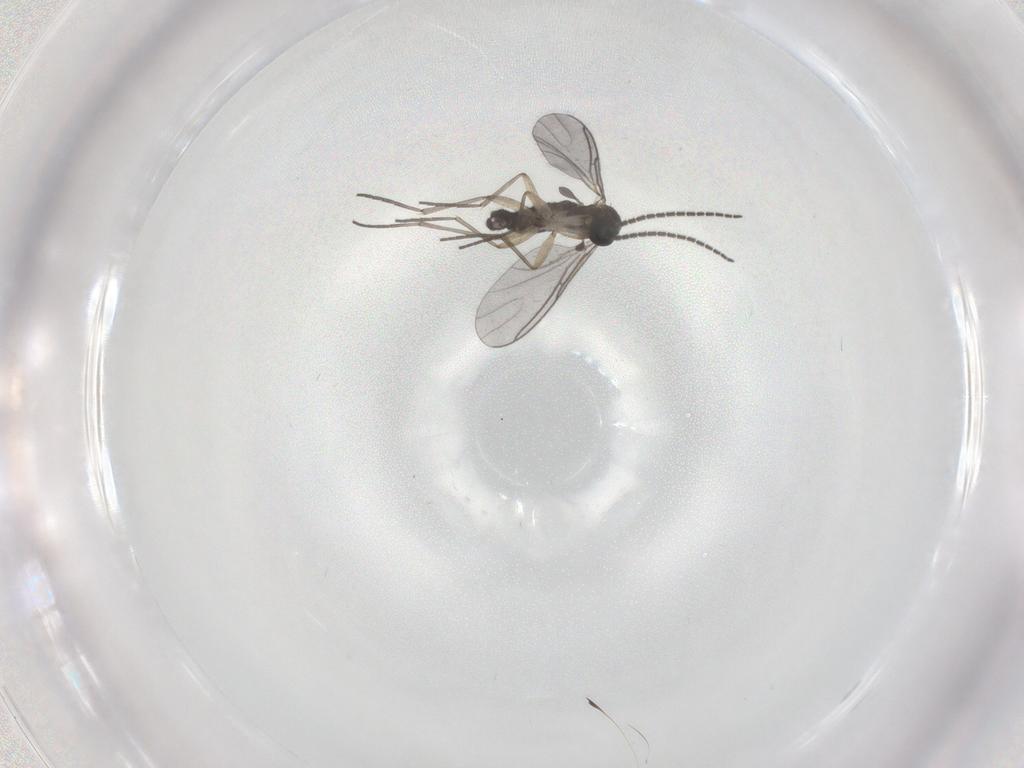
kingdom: Animalia
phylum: Arthropoda
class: Insecta
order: Diptera
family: Sciaridae
